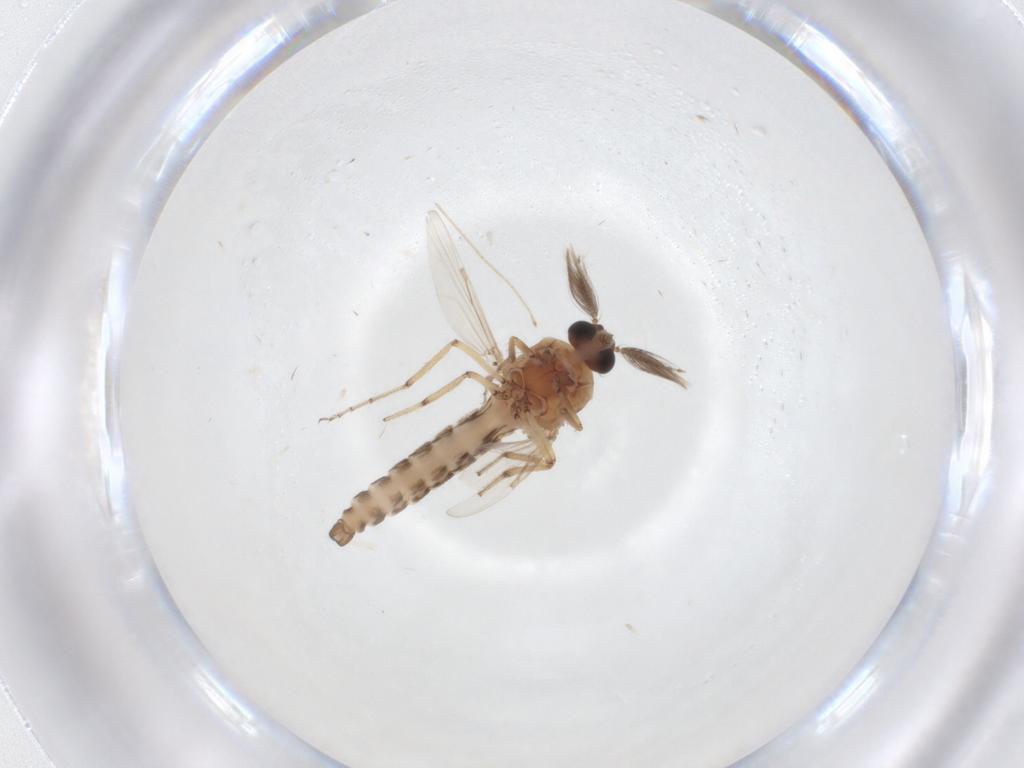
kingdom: Animalia
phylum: Arthropoda
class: Insecta
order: Diptera
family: Ceratopogonidae
